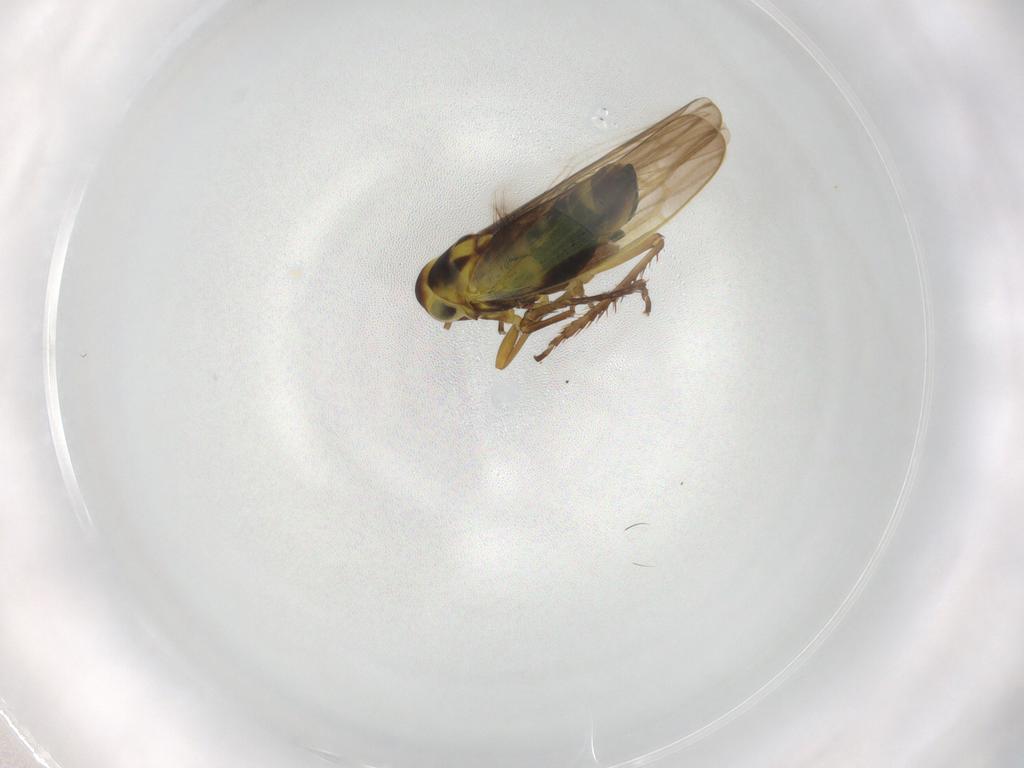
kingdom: Animalia
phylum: Arthropoda
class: Insecta
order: Hemiptera
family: Cicadellidae
